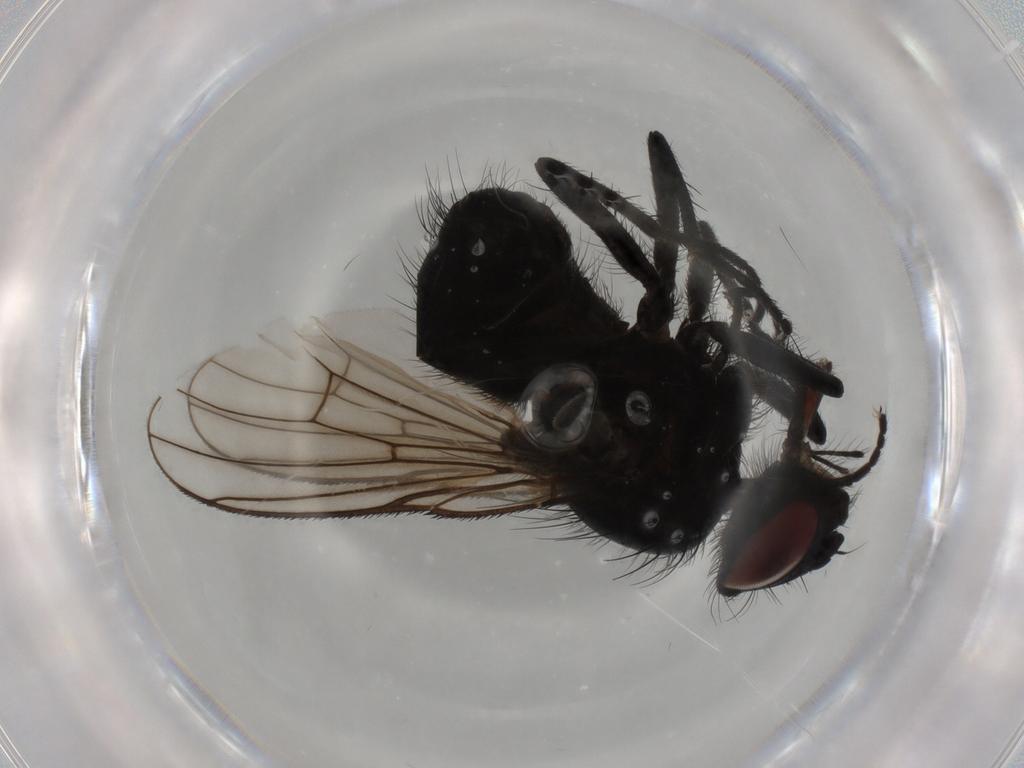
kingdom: Animalia
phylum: Arthropoda
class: Insecta
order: Diptera
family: Muscidae
